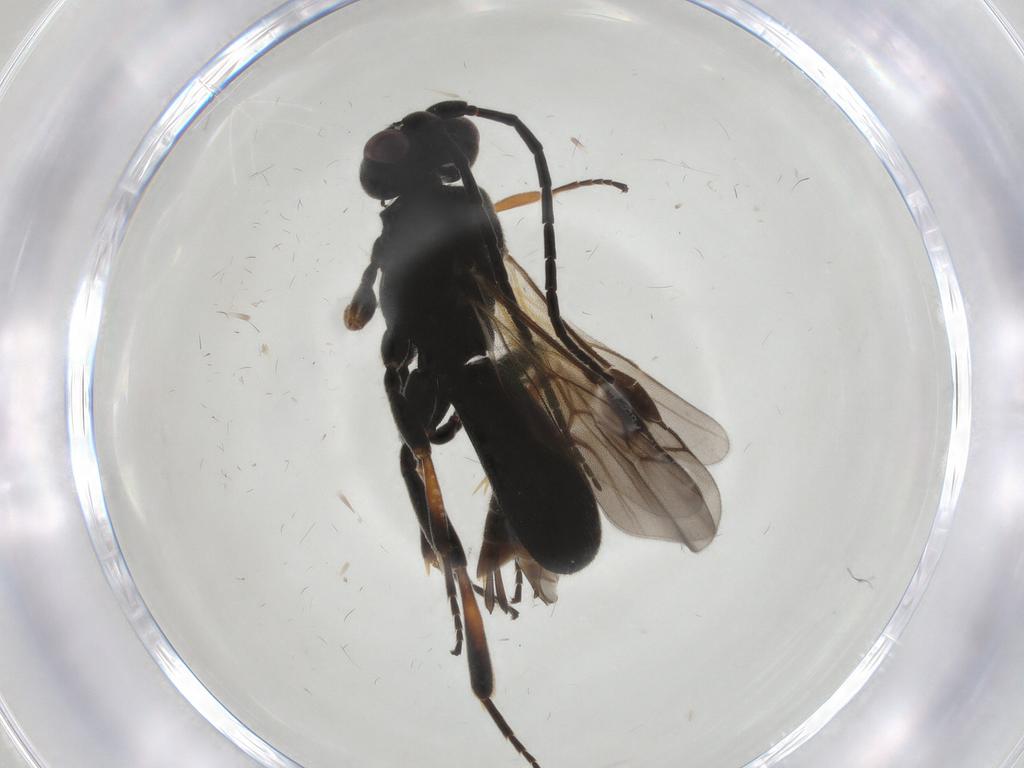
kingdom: Animalia
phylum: Arthropoda
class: Insecta
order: Hymenoptera
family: Braconidae
